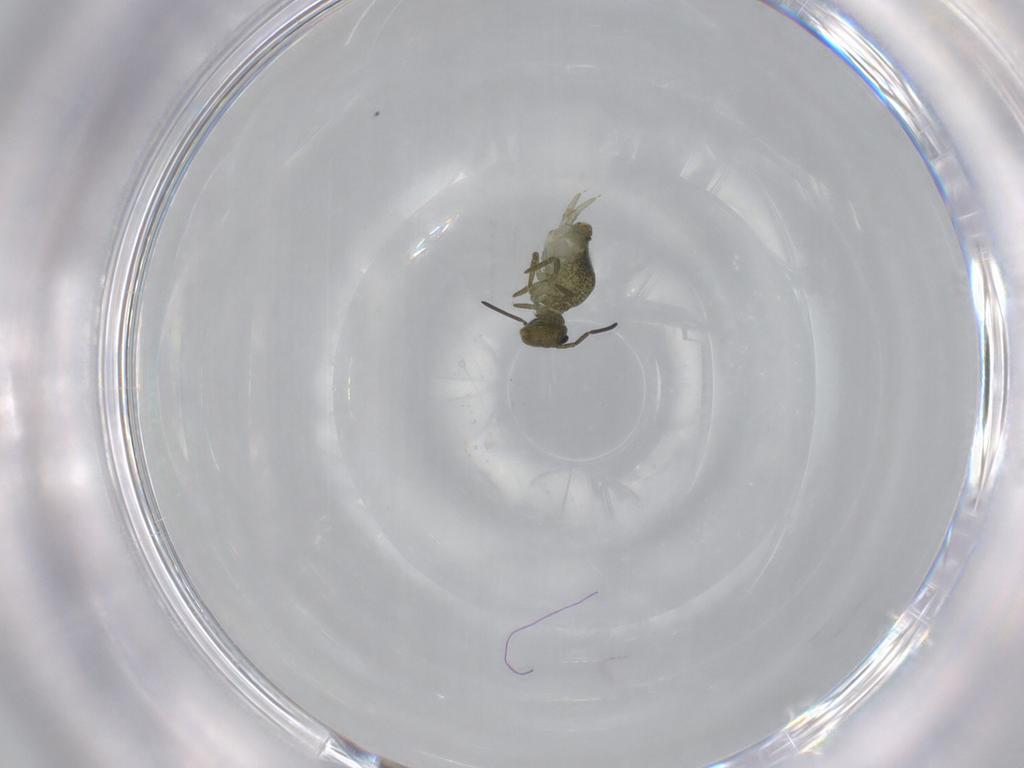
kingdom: Animalia
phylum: Arthropoda
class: Collembola
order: Symphypleona
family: Sminthuridae
